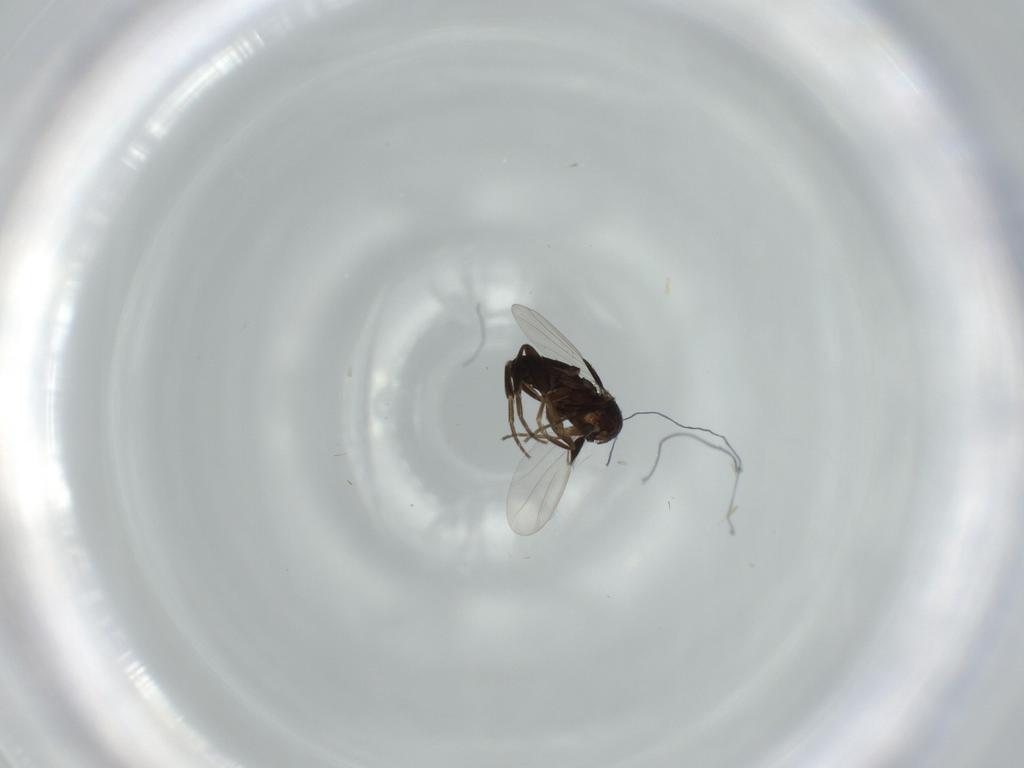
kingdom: Animalia
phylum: Arthropoda
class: Insecta
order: Diptera
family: Phoridae
